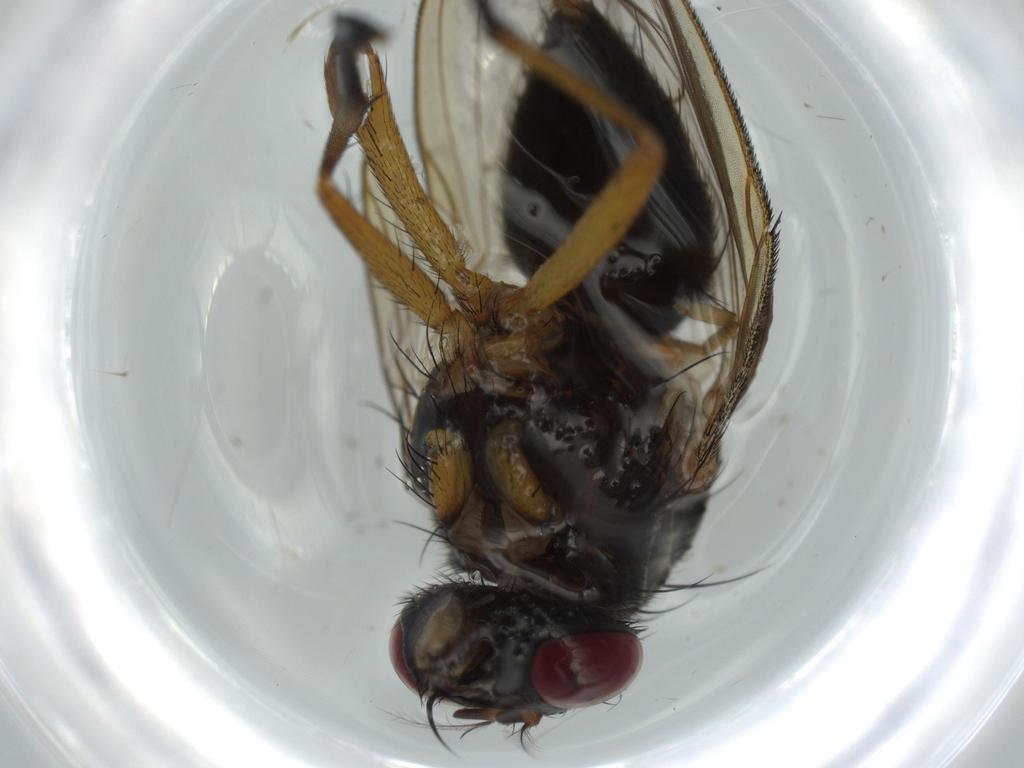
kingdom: Animalia
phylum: Arthropoda
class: Insecta
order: Diptera
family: Muscidae
